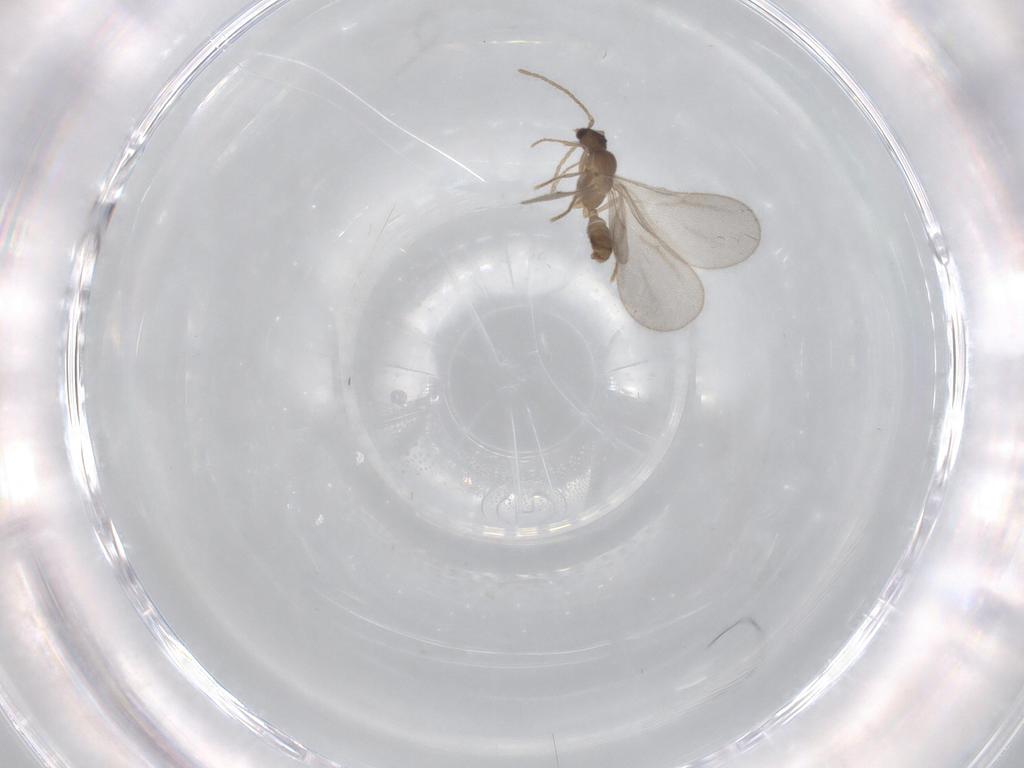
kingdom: Animalia
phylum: Arthropoda
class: Insecta
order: Hymenoptera
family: Formicidae
